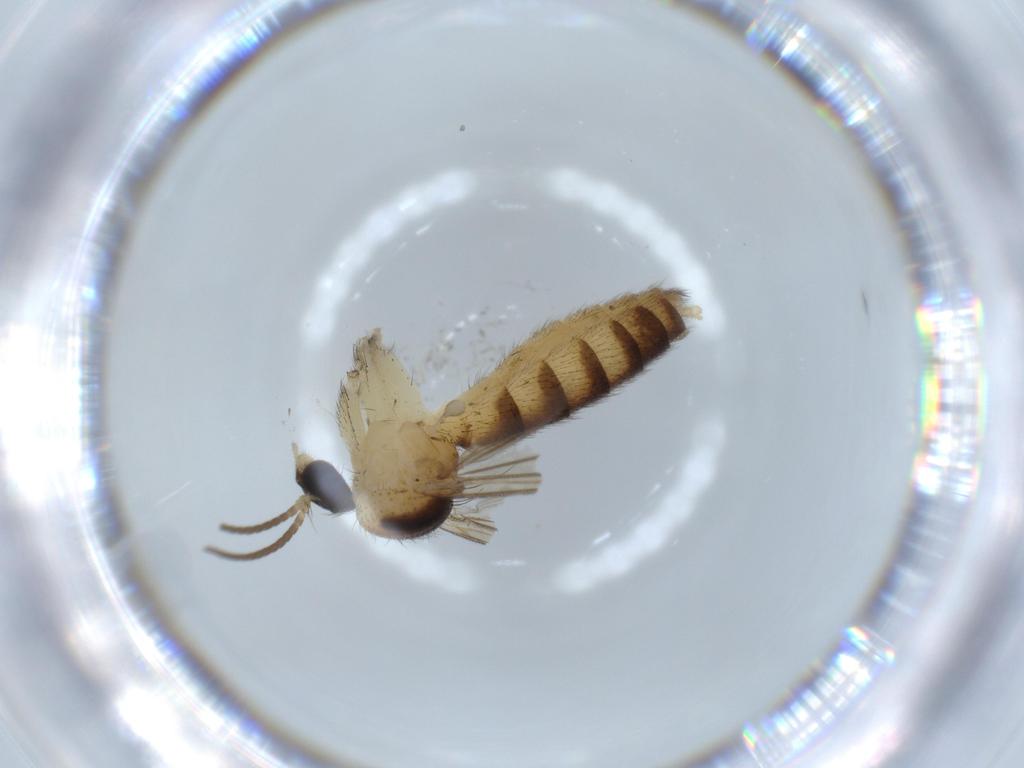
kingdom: Animalia
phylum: Arthropoda
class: Insecta
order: Diptera
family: Mycetophilidae
